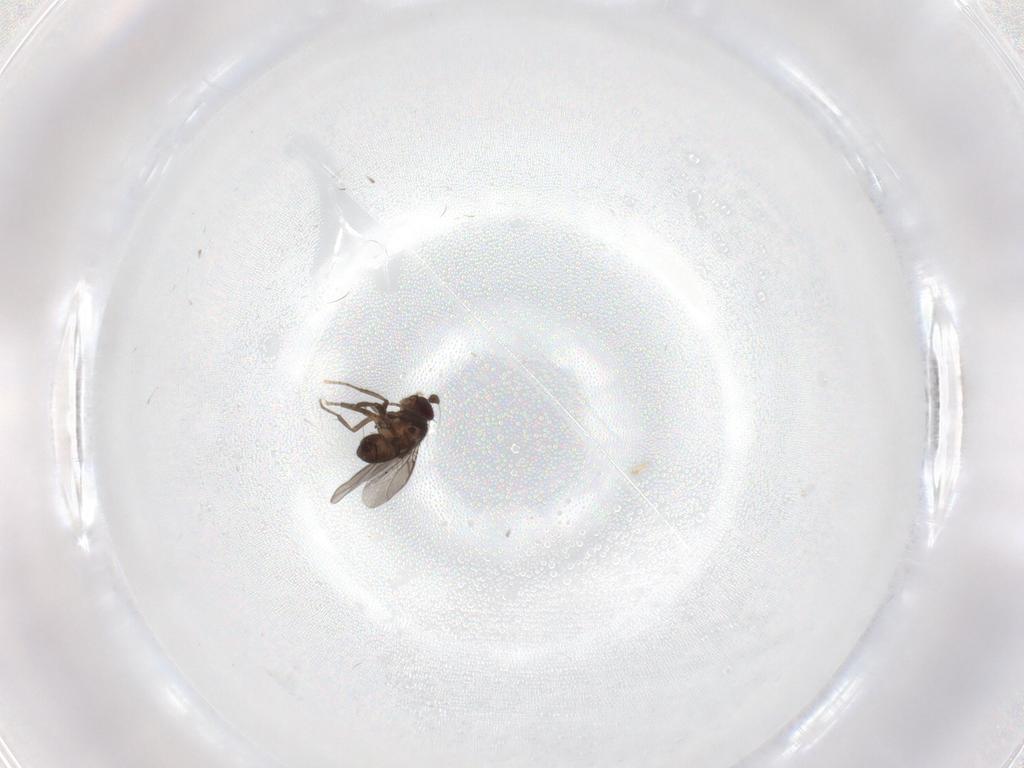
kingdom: Animalia
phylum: Arthropoda
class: Insecta
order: Diptera
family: Sphaeroceridae
